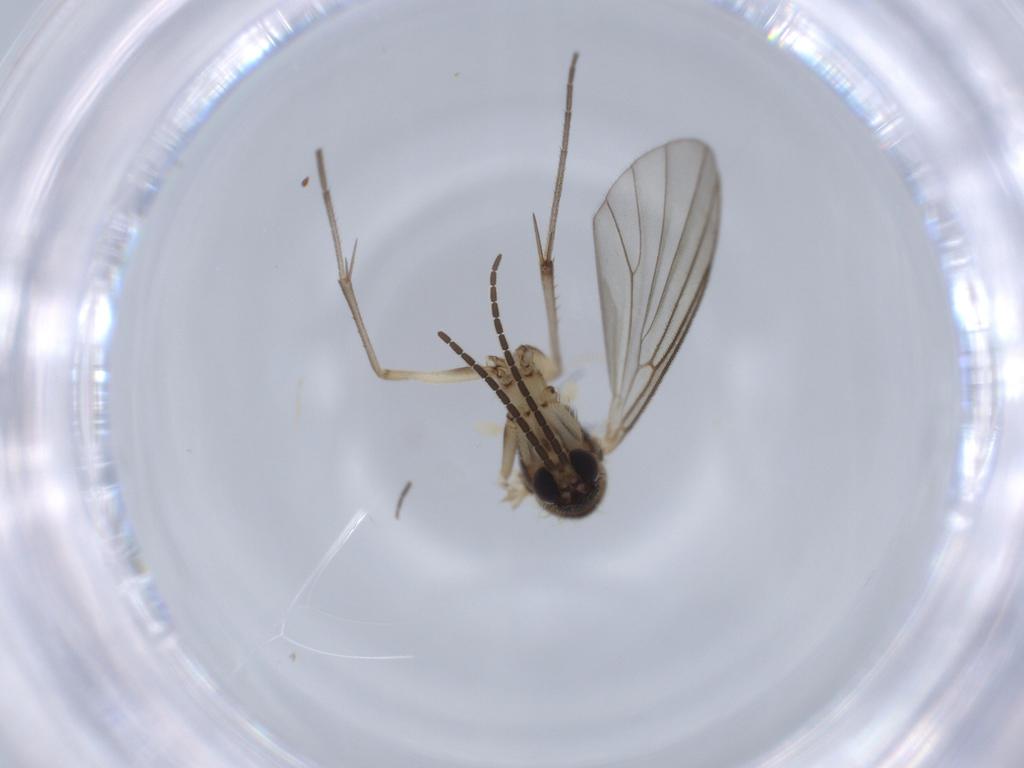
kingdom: Animalia
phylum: Arthropoda
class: Insecta
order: Diptera
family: Phoridae
